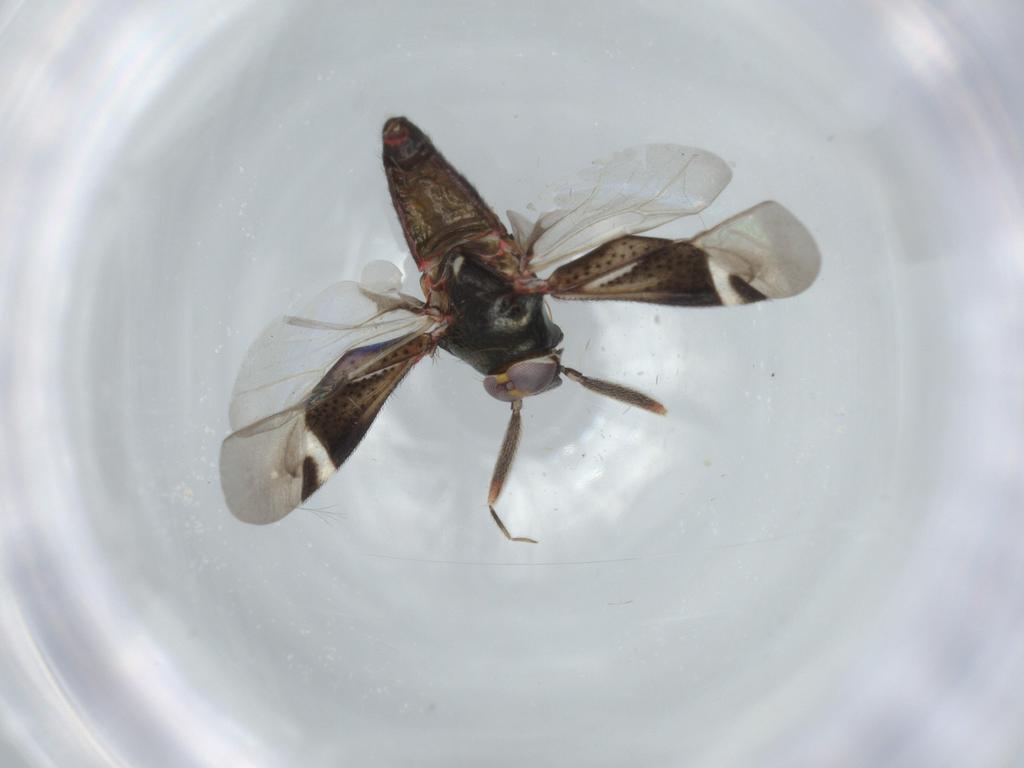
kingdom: Animalia
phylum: Arthropoda
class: Insecta
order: Hemiptera
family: Miridae
